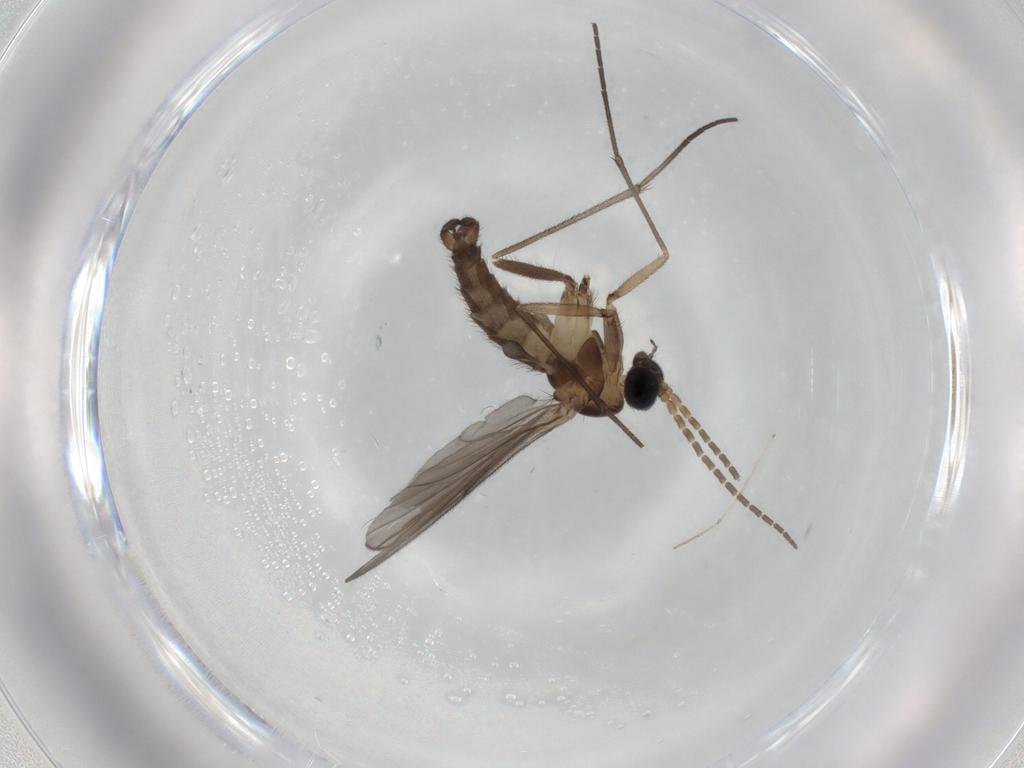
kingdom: Animalia
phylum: Arthropoda
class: Insecta
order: Diptera
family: Sciaridae
